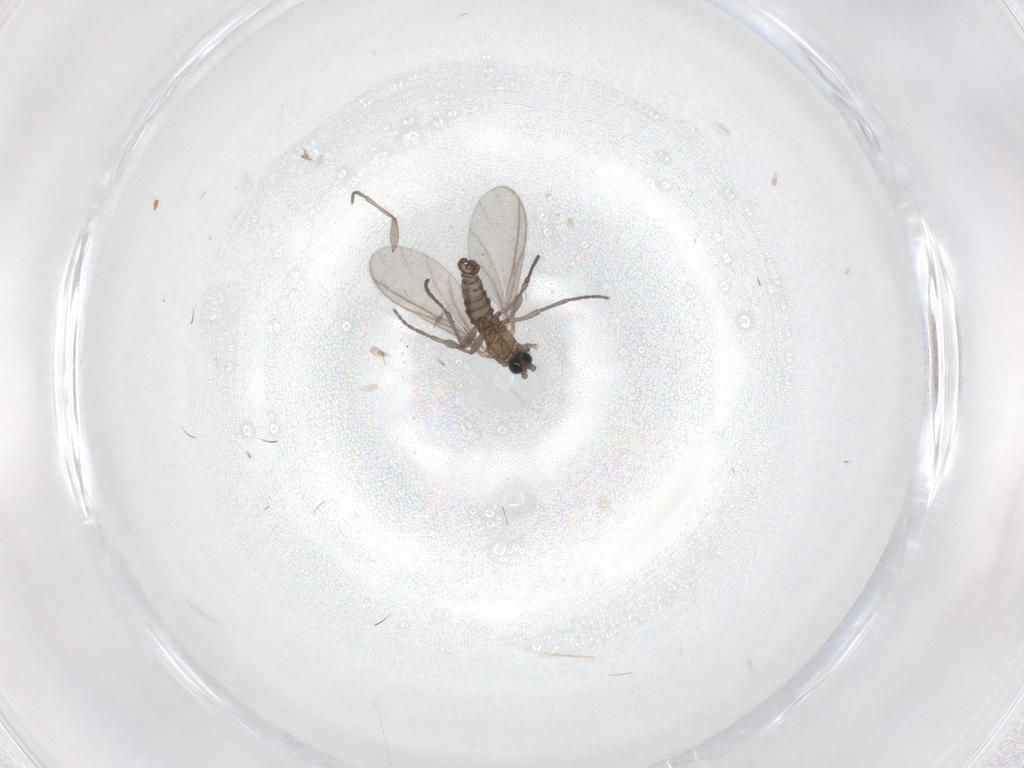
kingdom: Animalia
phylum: Arthropoda
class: Insecta
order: Diptera
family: Sciaridae
